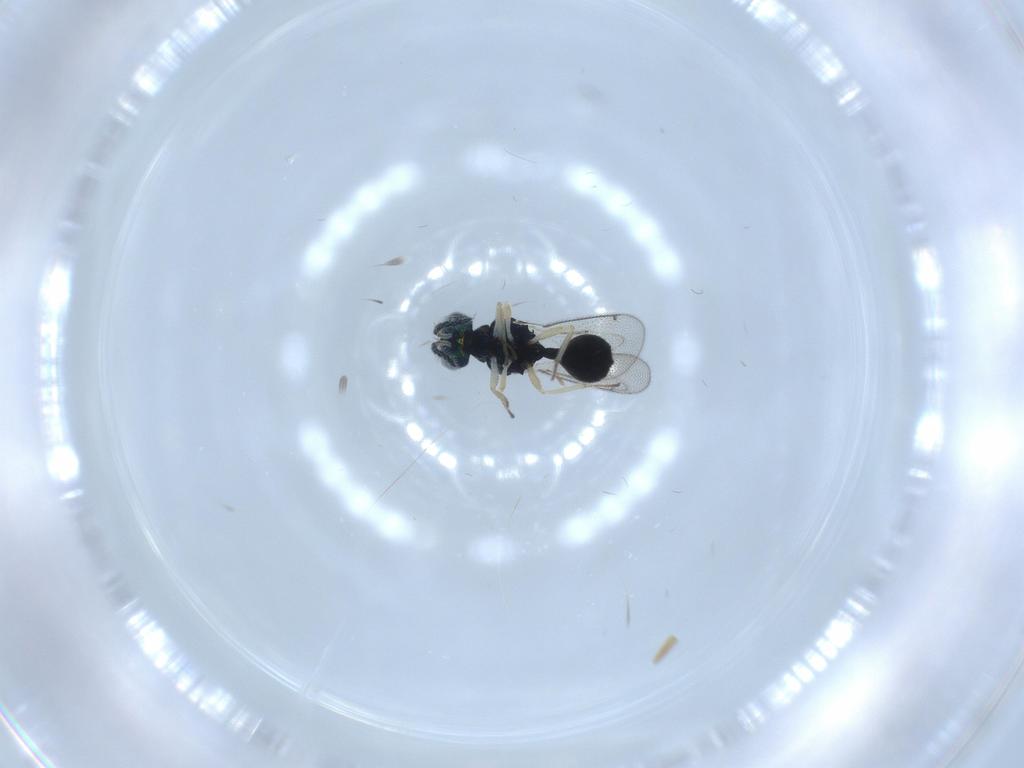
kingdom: Animalia
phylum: Arthropoda
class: Insecta
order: Hymenoptera
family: Eulophidae
